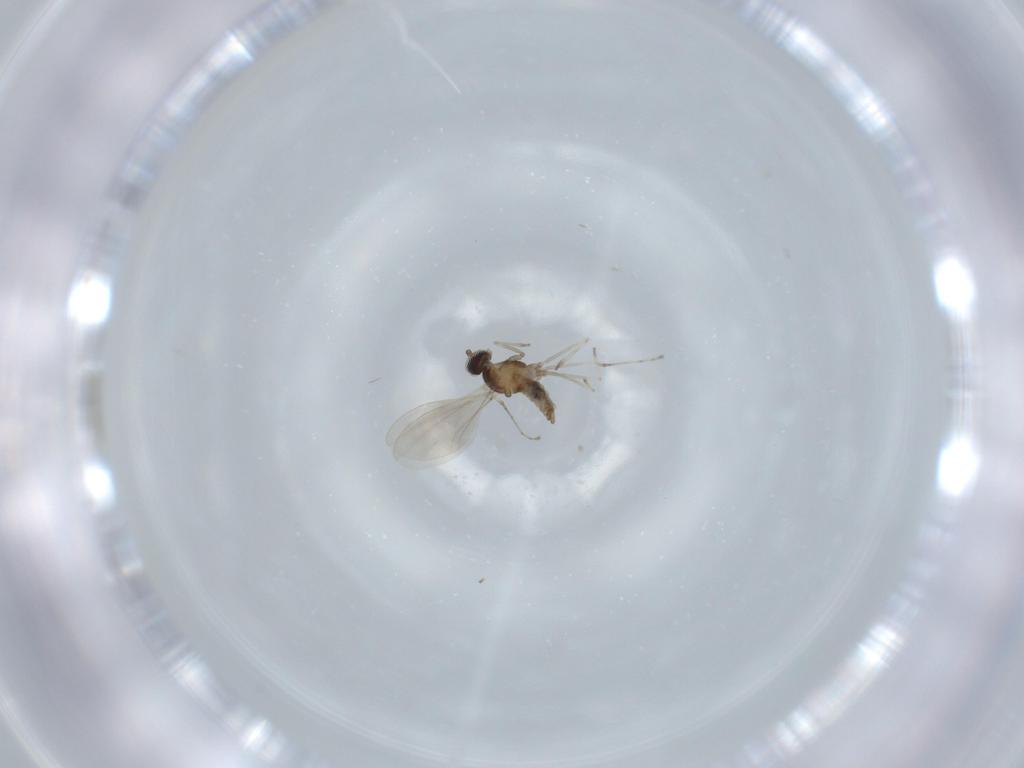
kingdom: Animalia
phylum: Arthropoda
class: Insecta
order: Diptera
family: Cecidomyiidae
